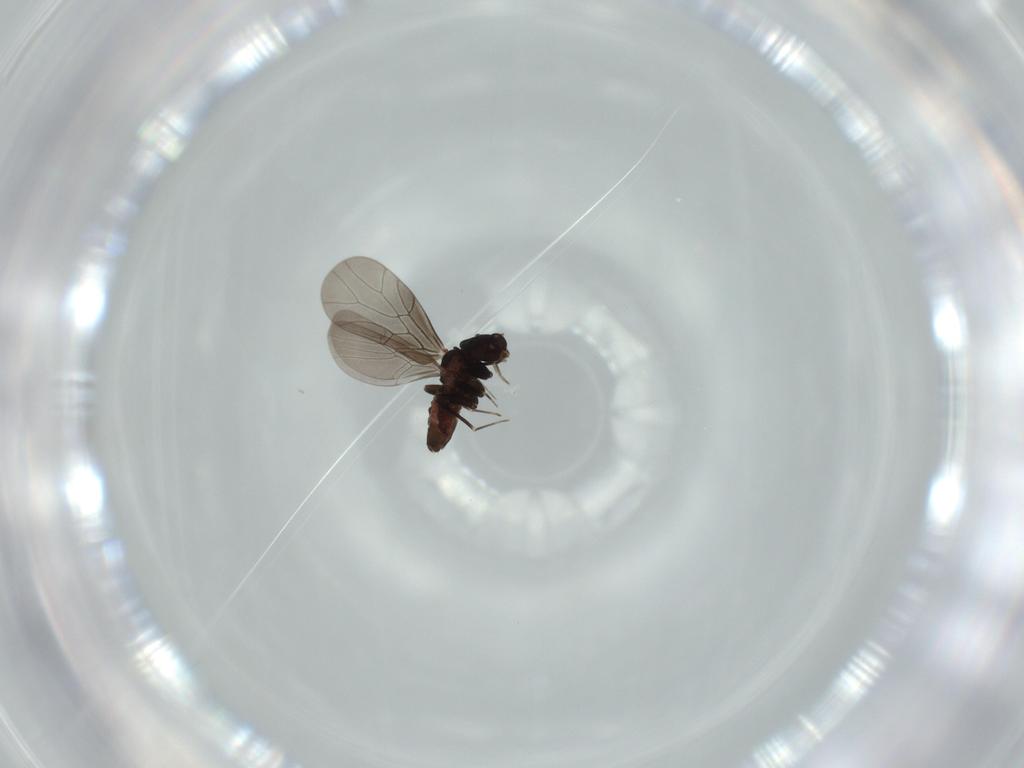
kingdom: Animalia
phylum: Arthropoda
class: Insecta
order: Psocodea
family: Lepidopsocidae
